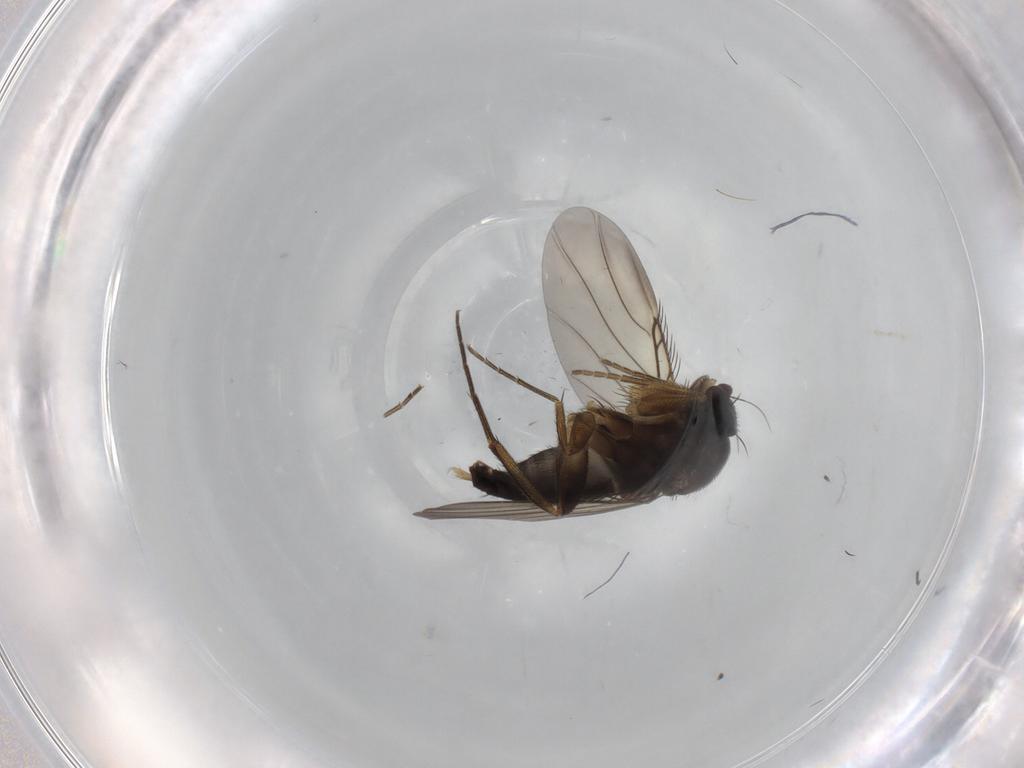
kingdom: Animalia
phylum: Arthropoda
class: Insecta
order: Diptera
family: Phoridae
